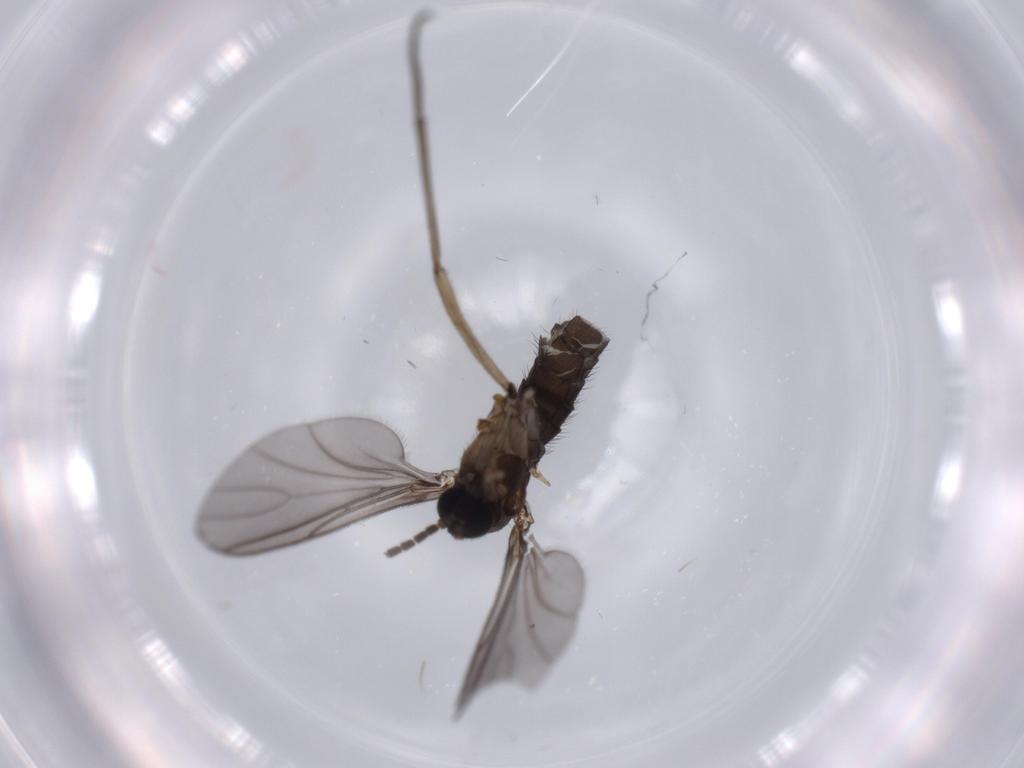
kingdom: Animalia
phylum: Arthropoda
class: Insecta
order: Diptera
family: Sciaridae
